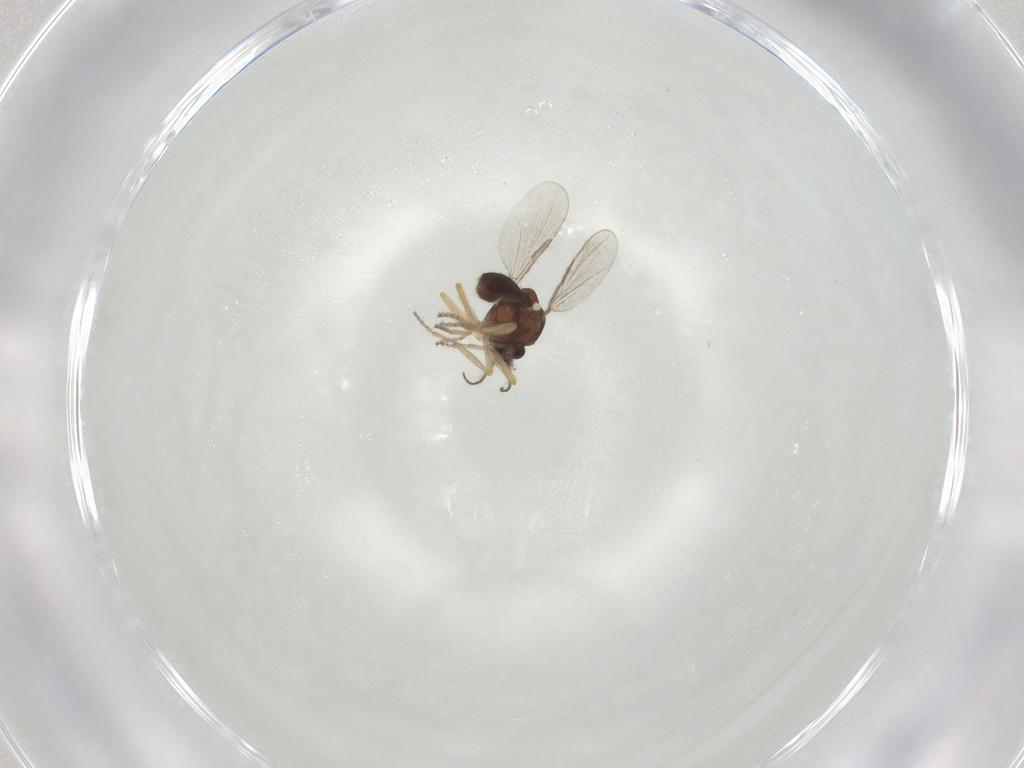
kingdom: Animalia
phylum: Arthropoda
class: Insecta
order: Diptera
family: Ceratopogonidae
